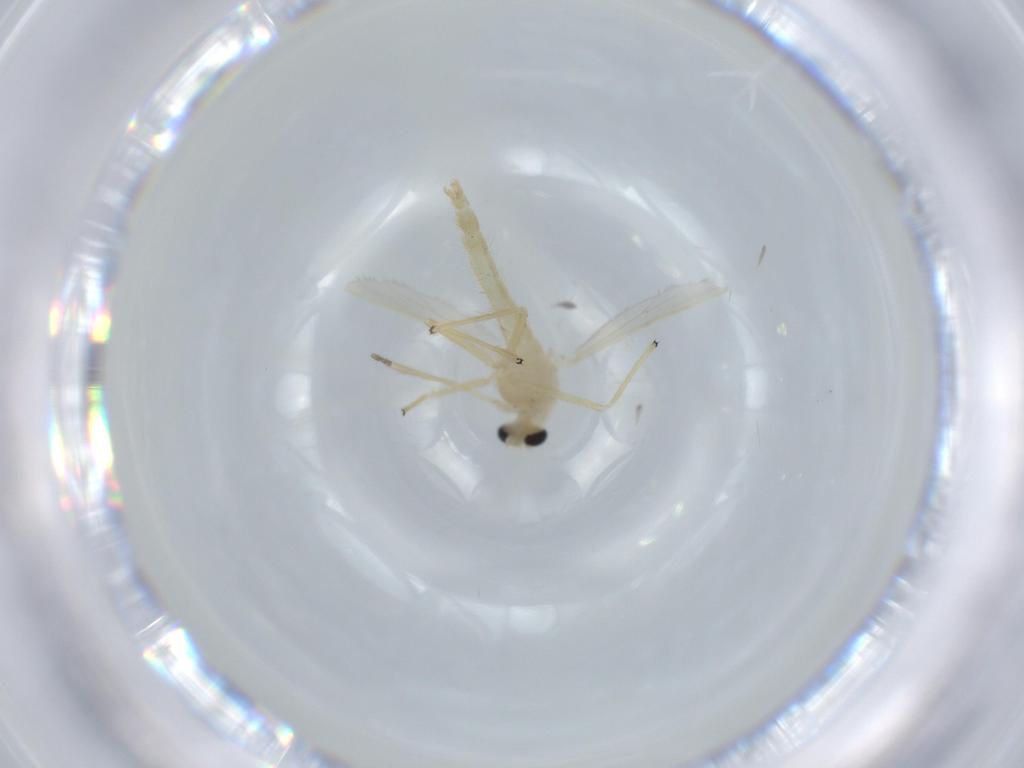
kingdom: Animalia
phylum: Arthropoda
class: Insecta
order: Diptera
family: Chironomidae
